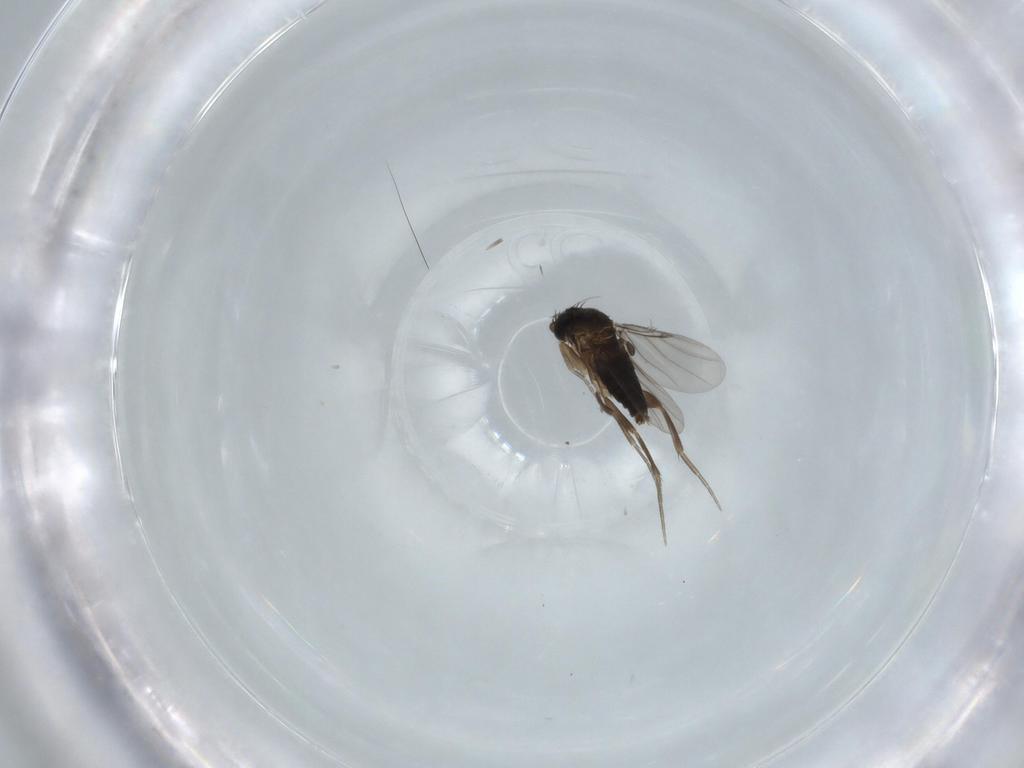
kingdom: Animalia
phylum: Arthropoda
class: Insecta
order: Diptera
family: Phoridae
